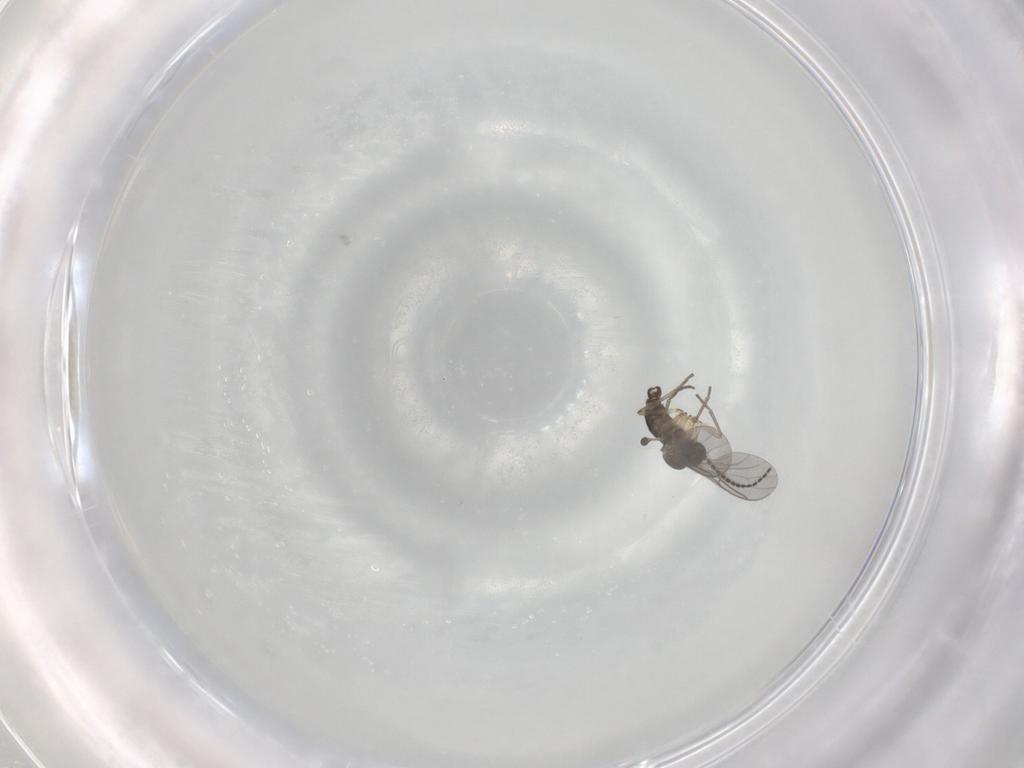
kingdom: Animalia
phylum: Arthropoda
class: Insecta
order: Diptera
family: Sciaridae
